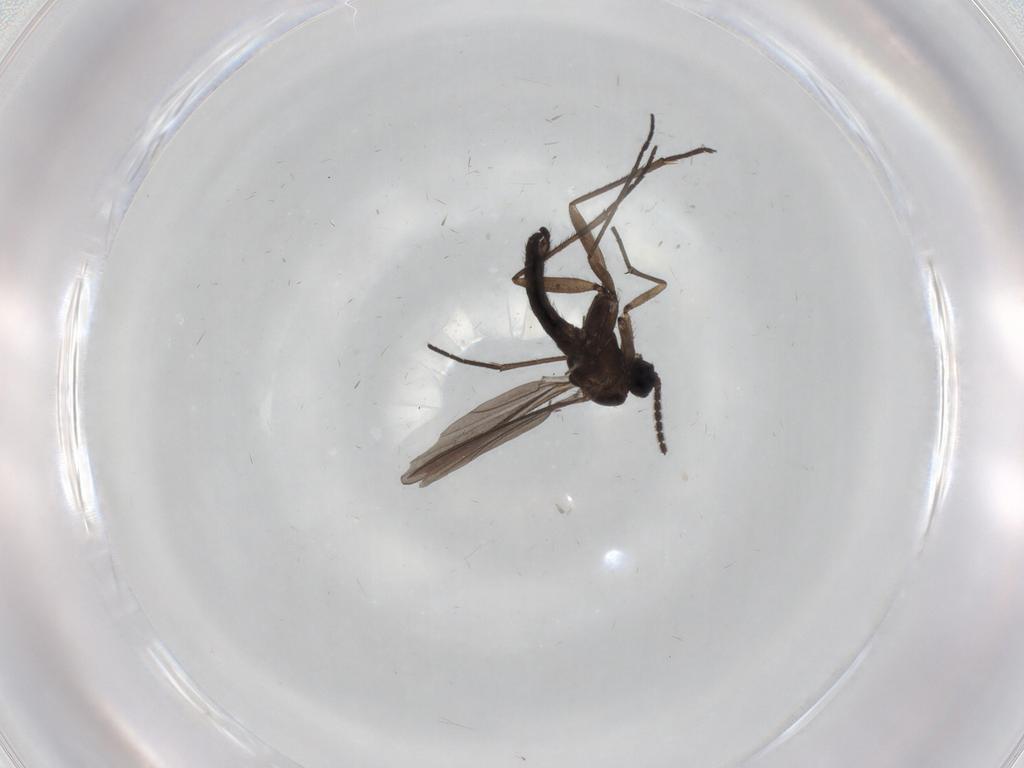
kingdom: Animalia
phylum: Arthropoda
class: Insecta
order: Diptera
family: Sciaridae
